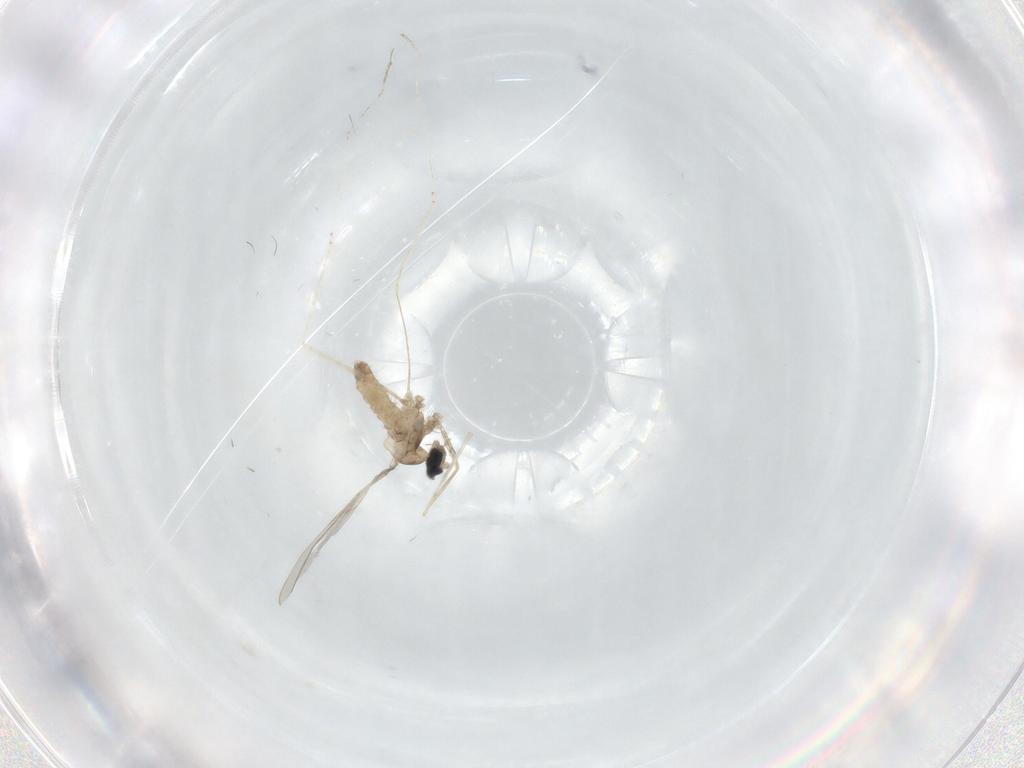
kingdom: Animalia
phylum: Arthropoda
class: Insecta
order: Diptera
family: Cecidomyiidae
